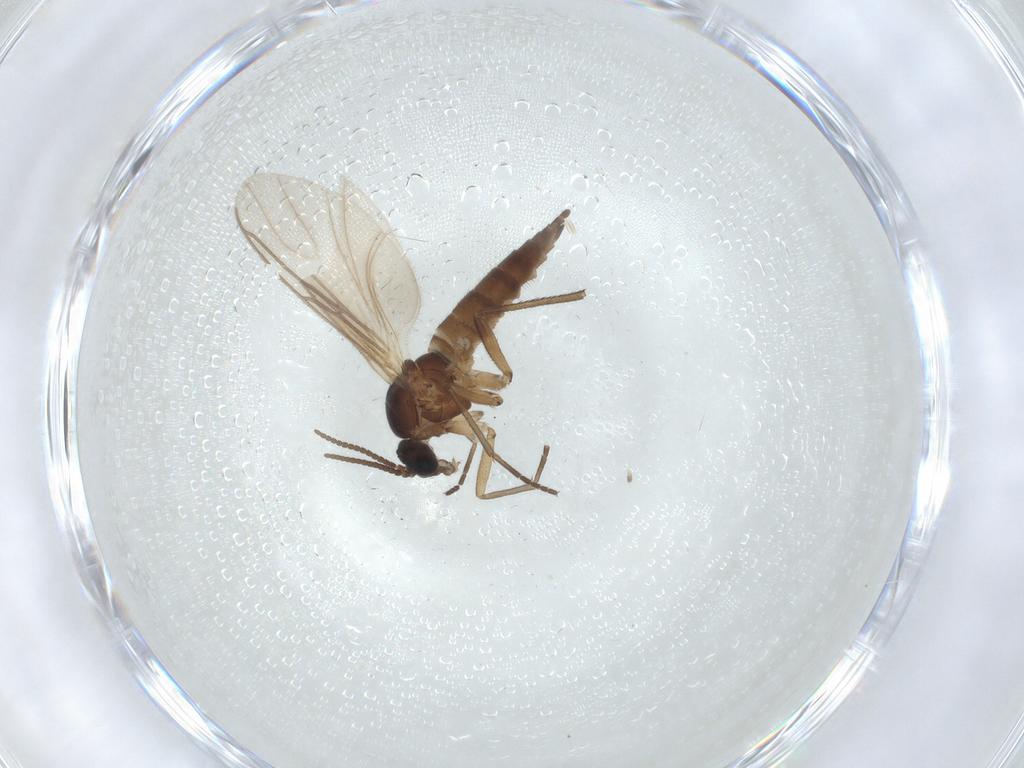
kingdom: Animalia
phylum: Arthropoda
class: Insecta
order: Diptera
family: Sciaridae
